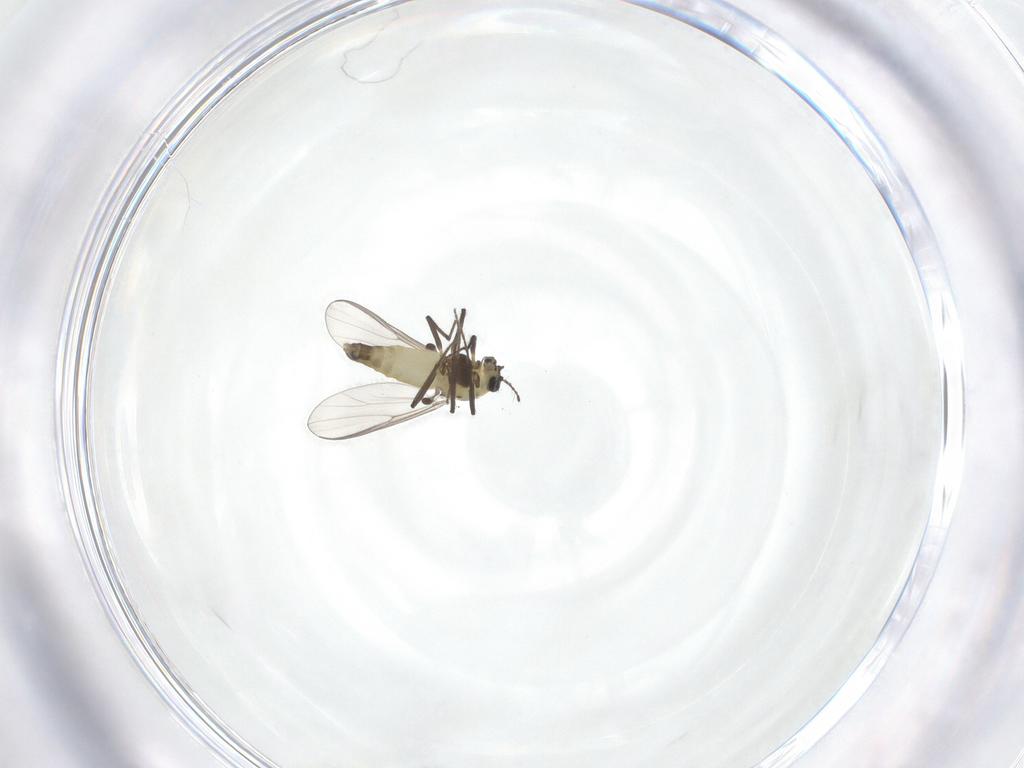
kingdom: Animalia
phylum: Arthropoda
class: Insecta
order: Diptera
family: Chironomidae
